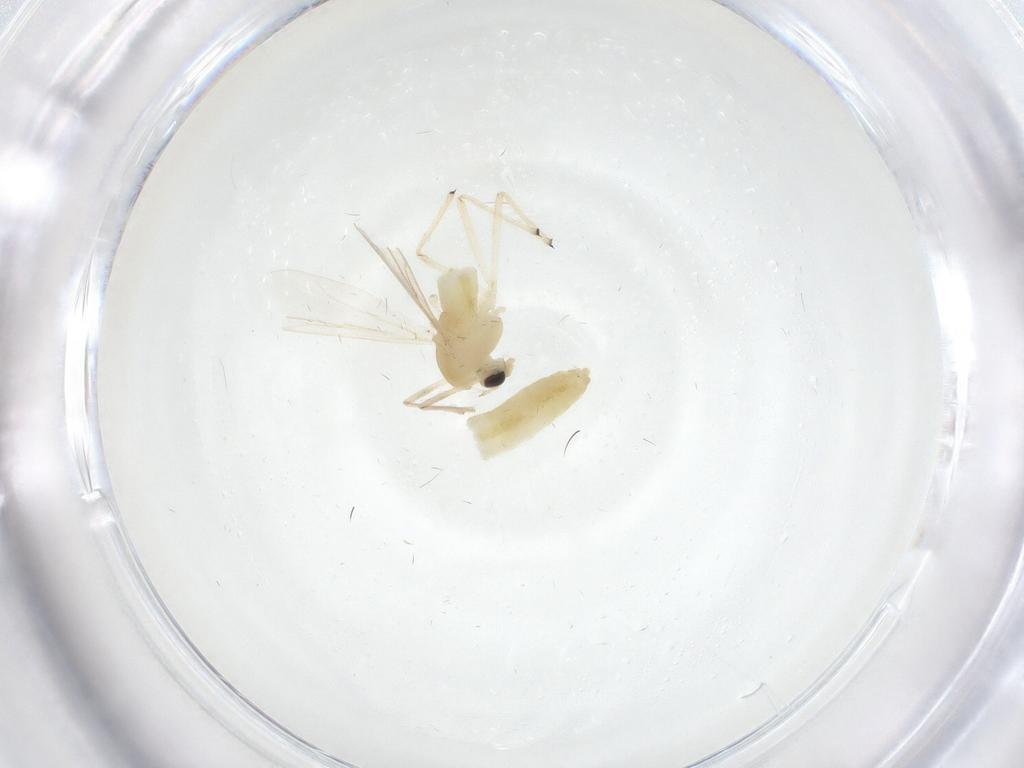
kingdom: Animalia
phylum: Arthropoda
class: Insecta
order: Diptera
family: Chironomidae
